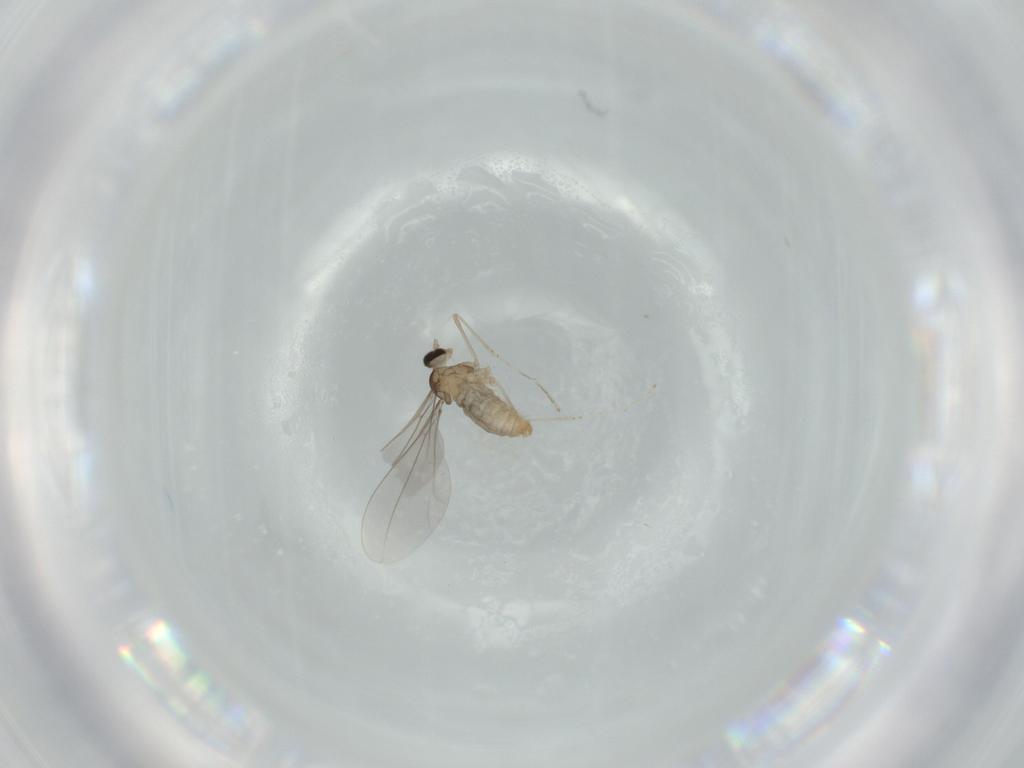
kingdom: Animalia
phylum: Arthropoda
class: Insecta
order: Diptera
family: Cecidomyiidae
